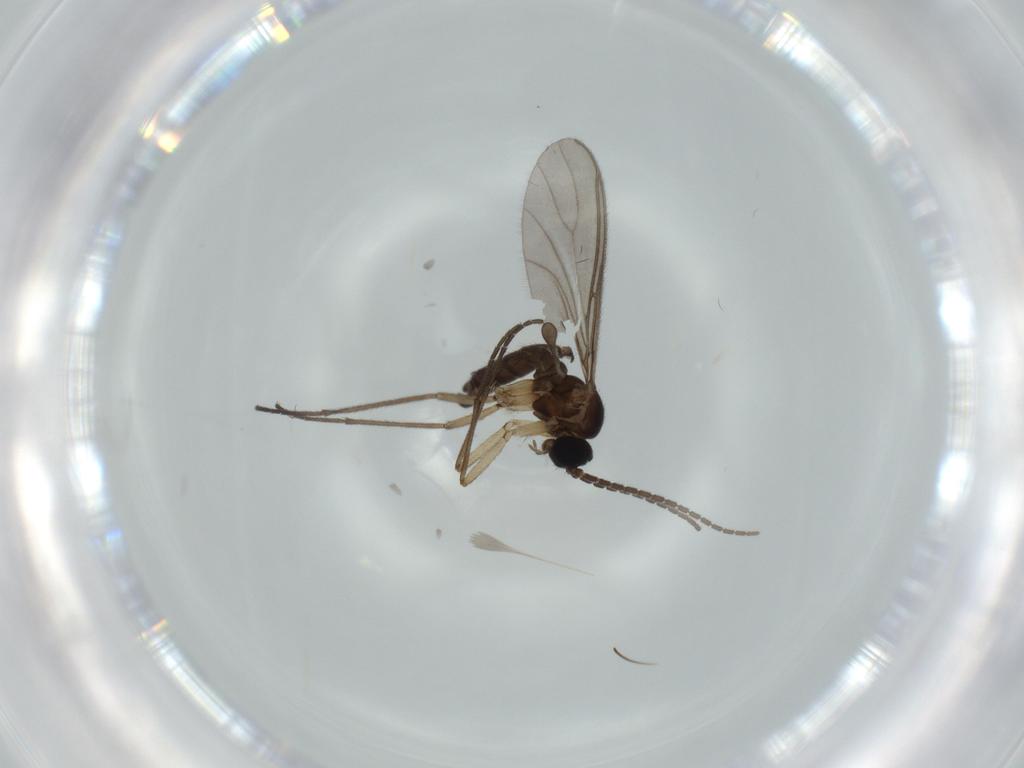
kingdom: Animalia
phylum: Arthropoda
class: Insecta
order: Diptera
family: Sciaridae
